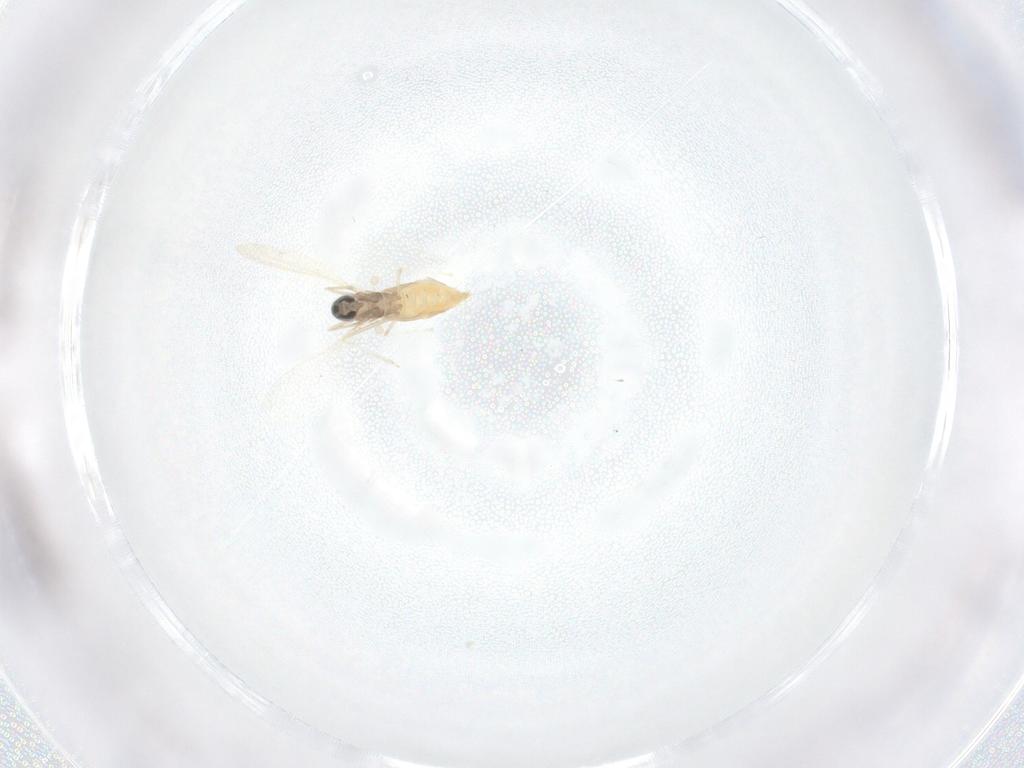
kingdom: Animalia
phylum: Arthropoda
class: Insecta
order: Diptera
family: Cecidomyiidae
